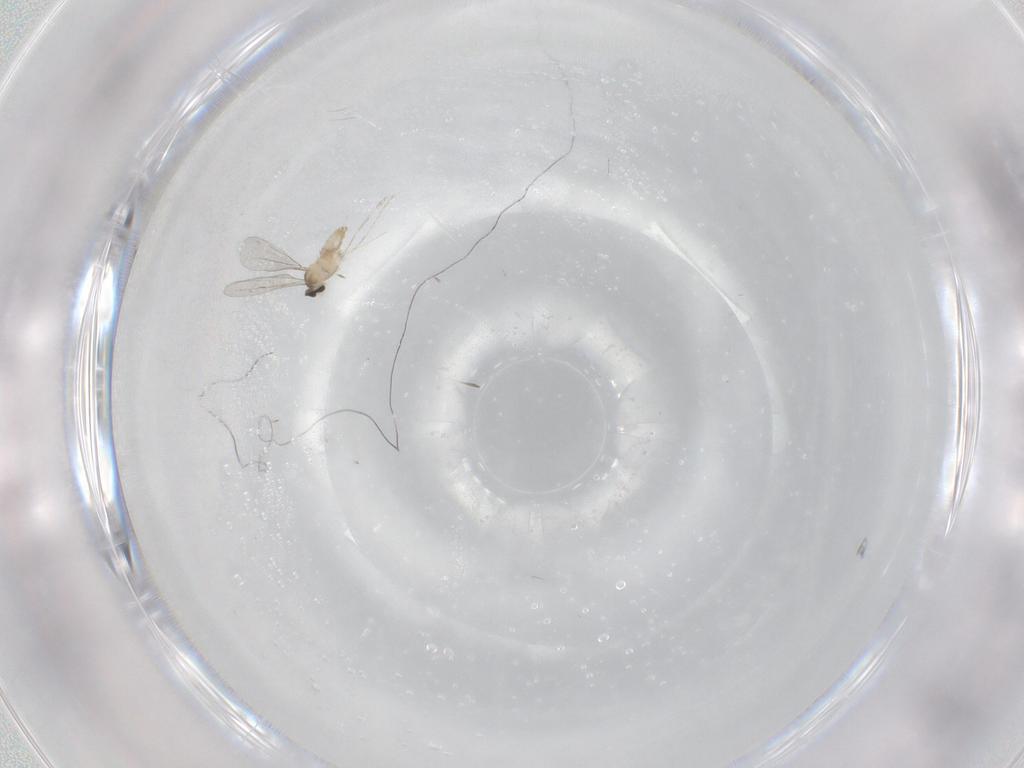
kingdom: Animalia
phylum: Arthropoda
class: Insecta
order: Diptera
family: Cecidomyiidae
